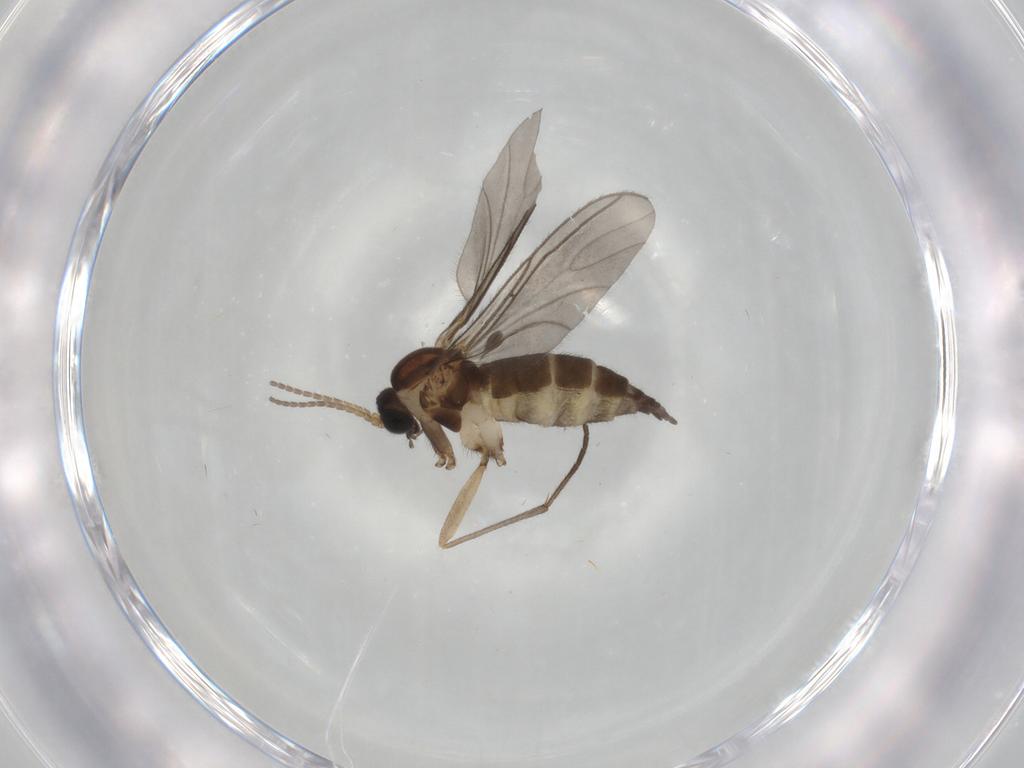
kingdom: Animalia
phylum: Arthropoda
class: Insecta
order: Diptera
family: Sciaridae
